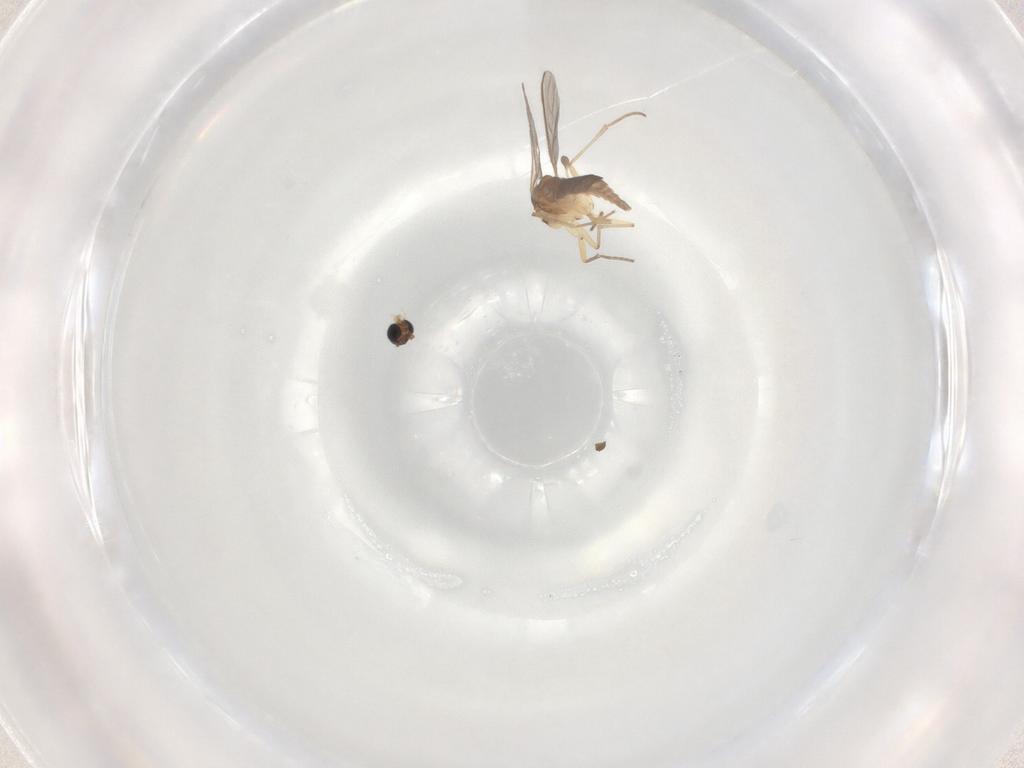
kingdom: Animalia
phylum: Arthropoda
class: Insecta
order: Diptera
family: Sciaridae
